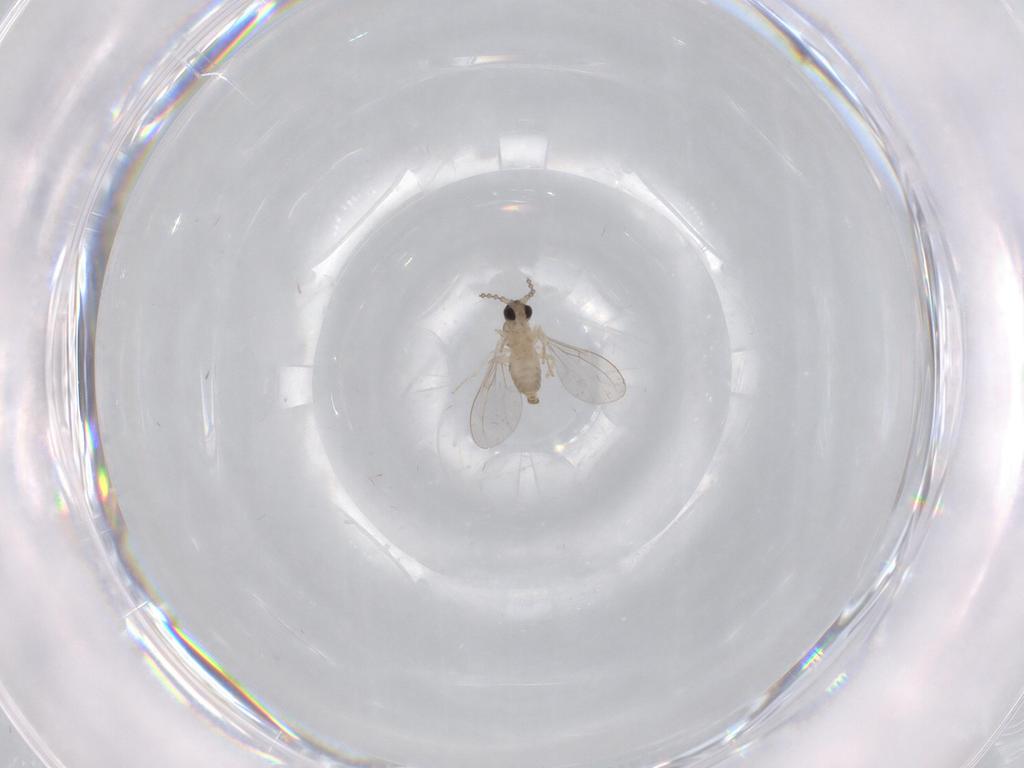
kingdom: Animalia
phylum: Arthropoda
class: Insecta
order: Diptera
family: Cecidomyiidae
